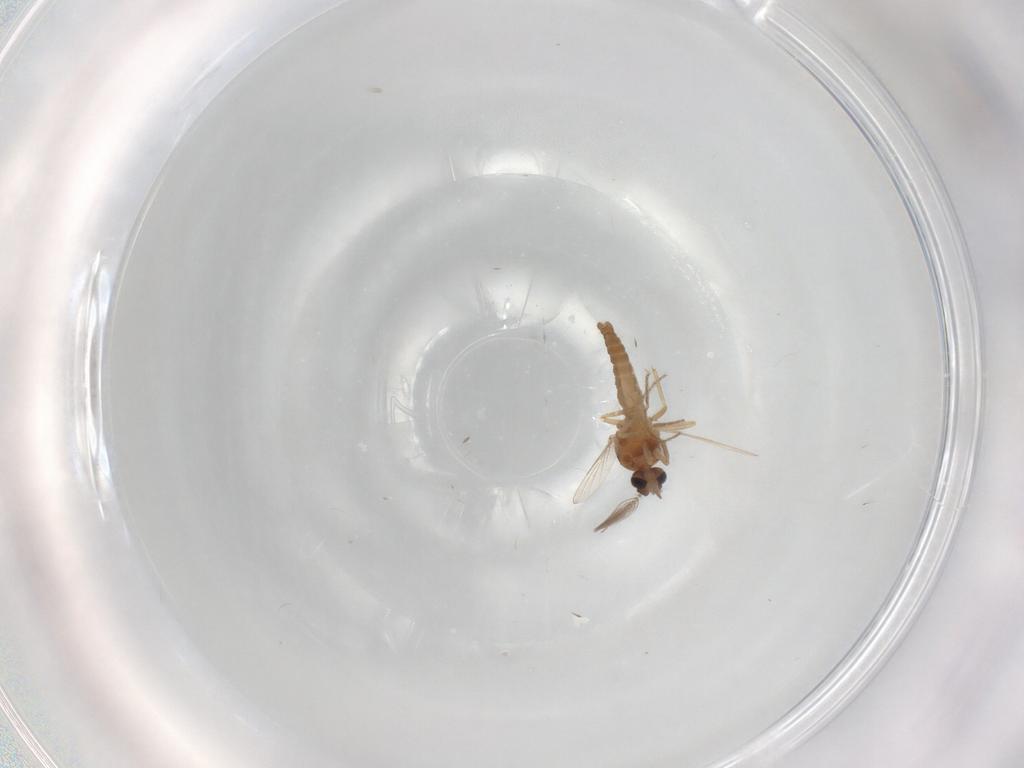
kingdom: Animalia
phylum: Arthropoda
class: Insecta
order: Diptera
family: Ceratopogonidae
